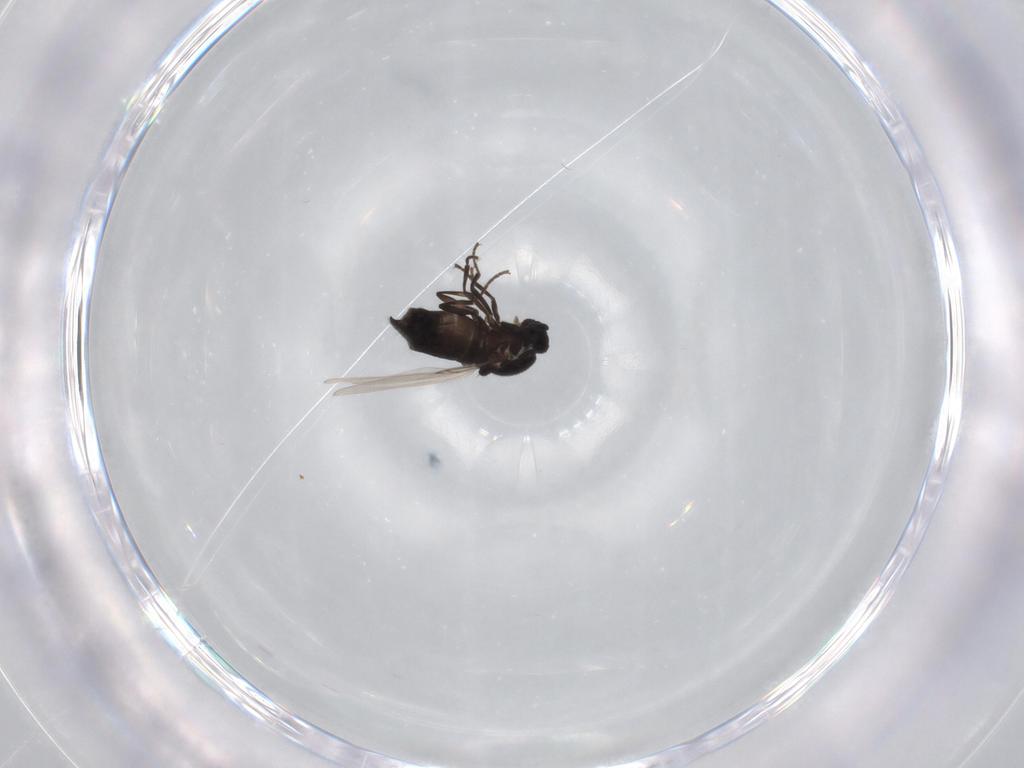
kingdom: Animalia
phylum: Arthropoda
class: Insecta
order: Diptera
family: Scatopsidae
